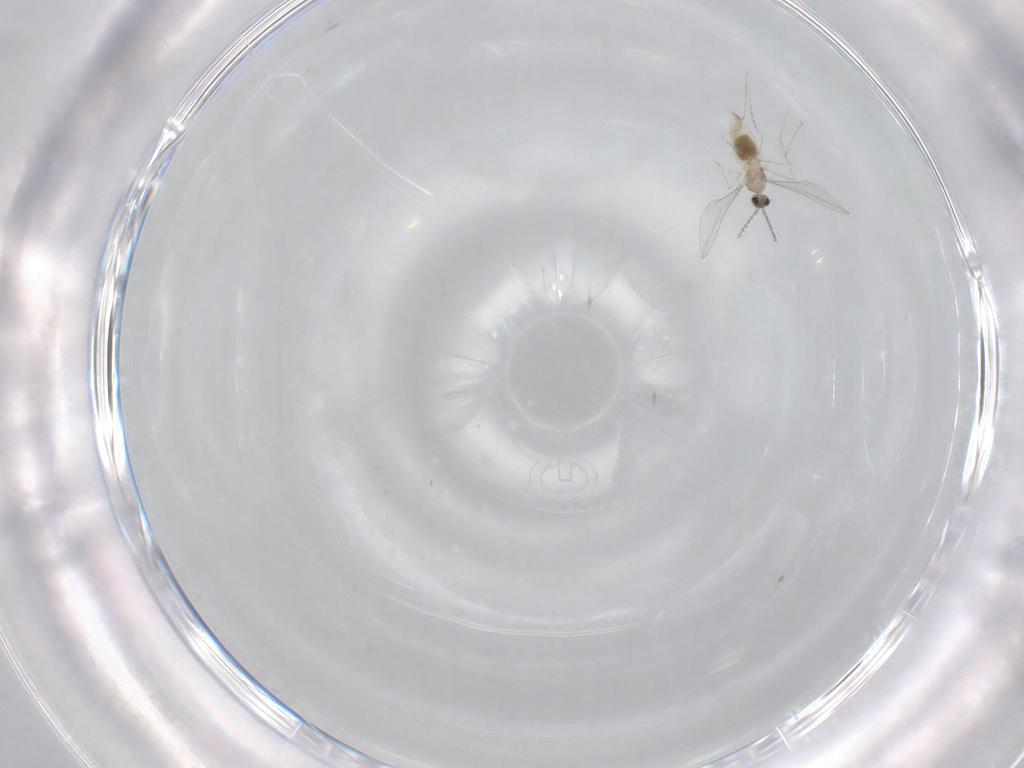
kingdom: Animalia
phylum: Arthropoda
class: Insecta
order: Diptera
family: Cecidomyiidae
